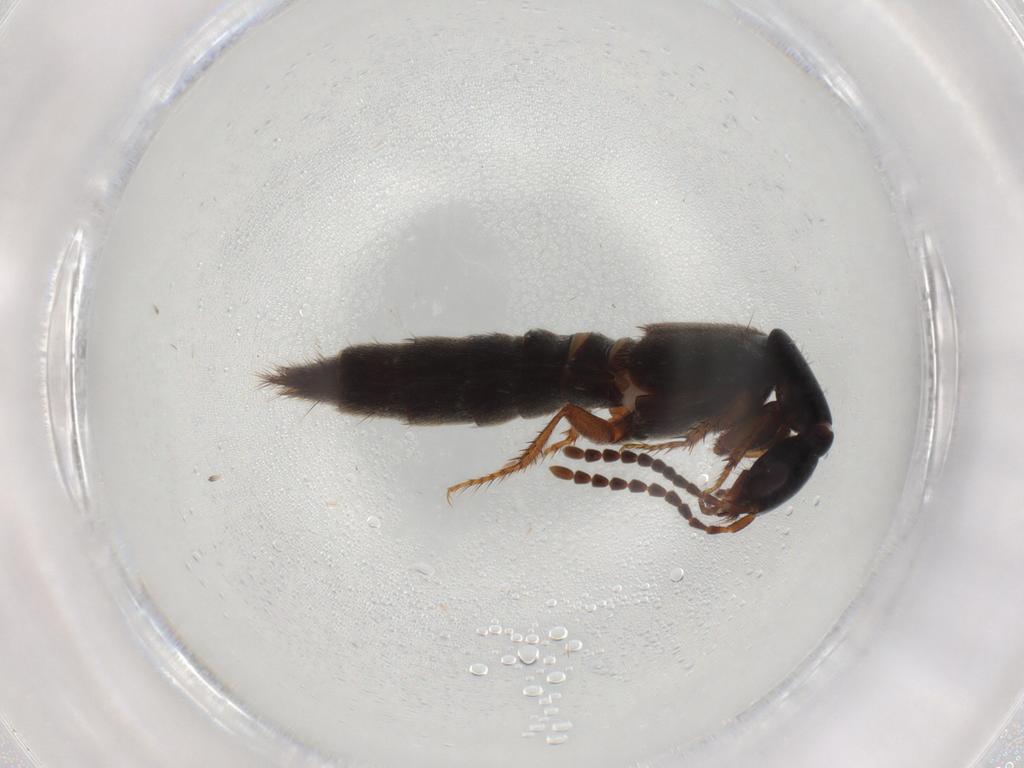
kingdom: Animalia
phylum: Arthropoda
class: Insecta
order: Coleoptera
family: Staphylinidae
